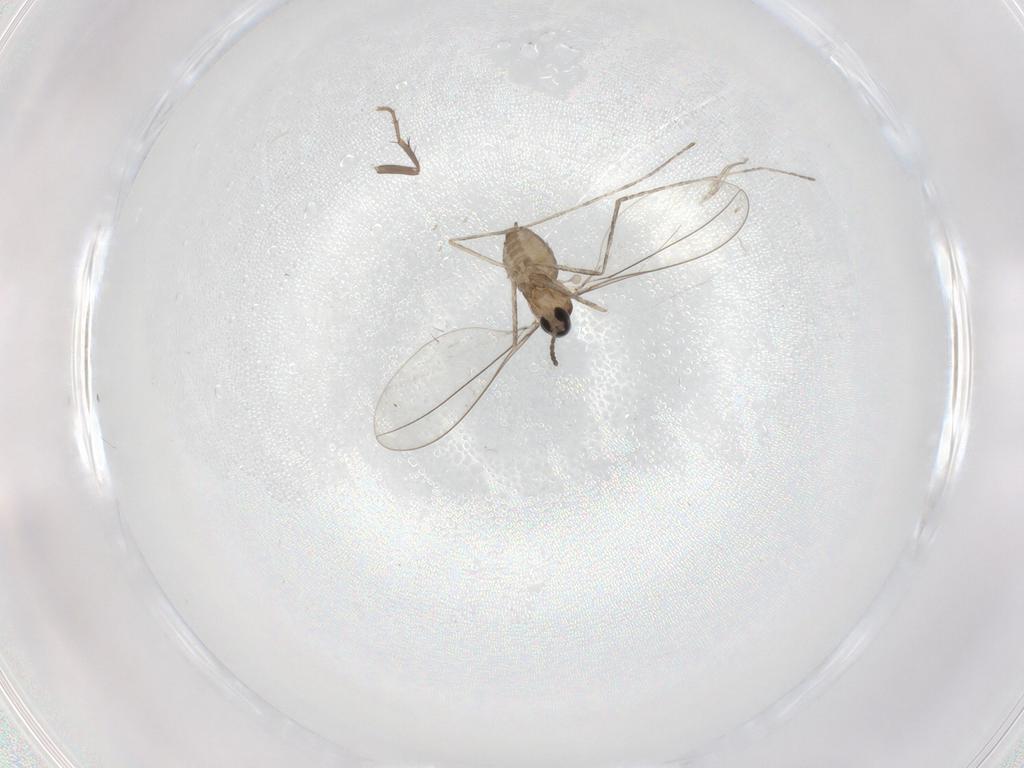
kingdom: Animalia
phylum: Arthropoda
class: Insecta
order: Diptera
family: Cecidomyiidae
